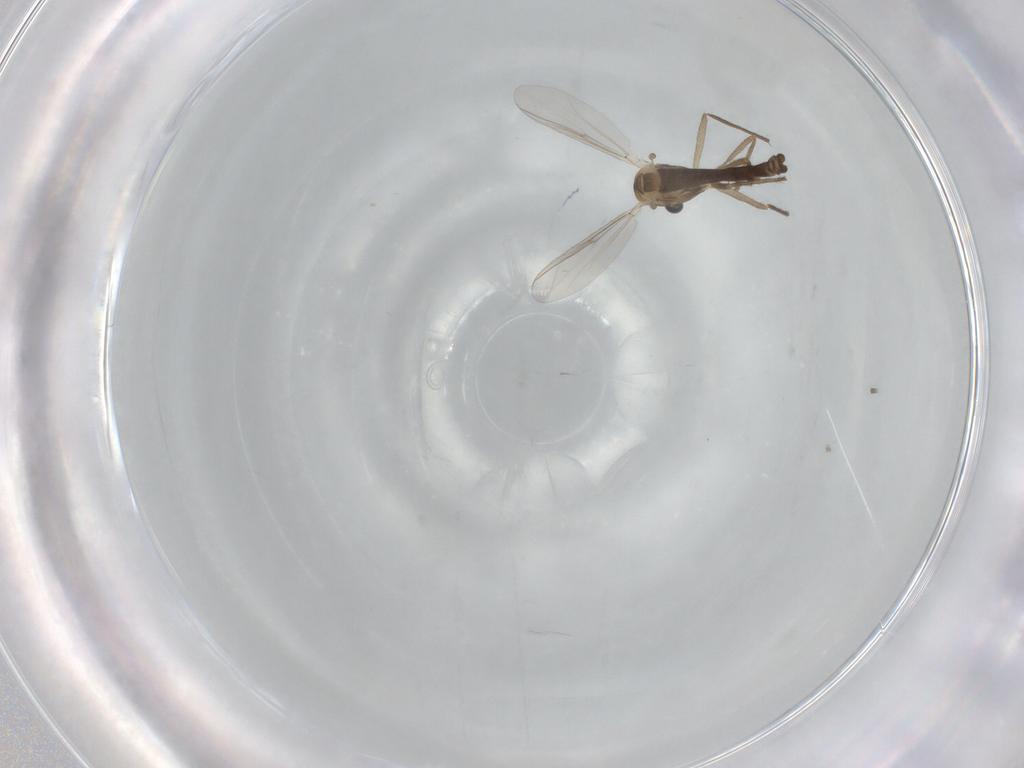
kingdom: Animalia
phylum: Arthropoda
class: Insecta
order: Diptera
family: Chironomidae
